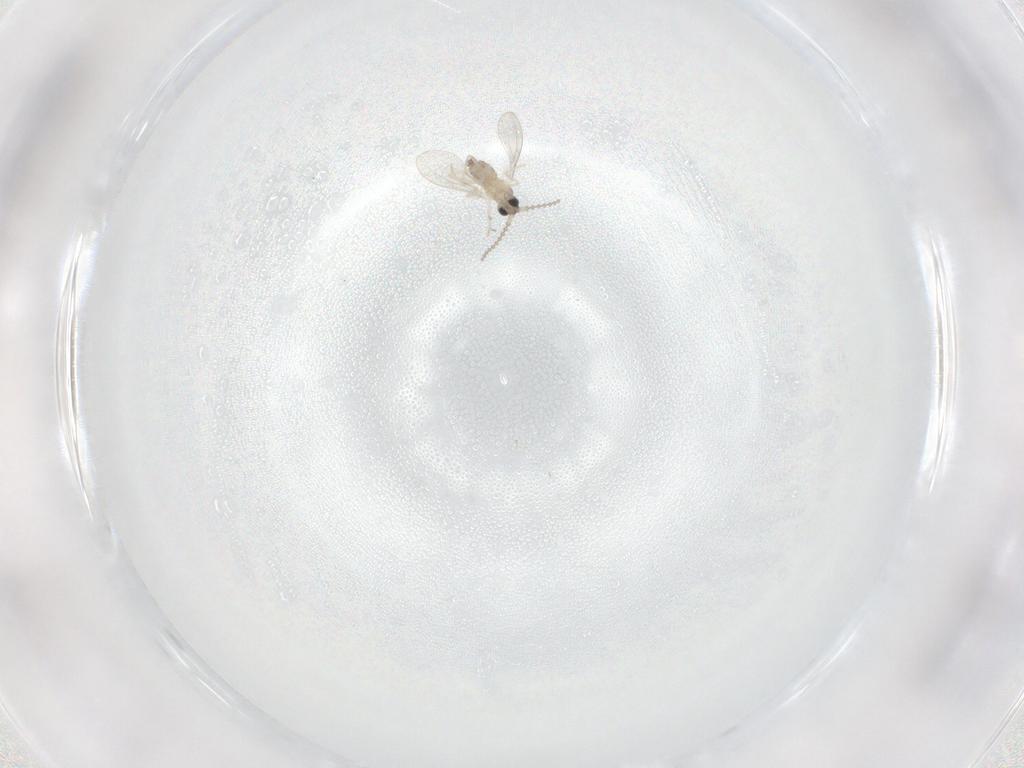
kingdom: Animalia
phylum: Arthropoda
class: Insecta
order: Diptera
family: Cecidomyiidae
